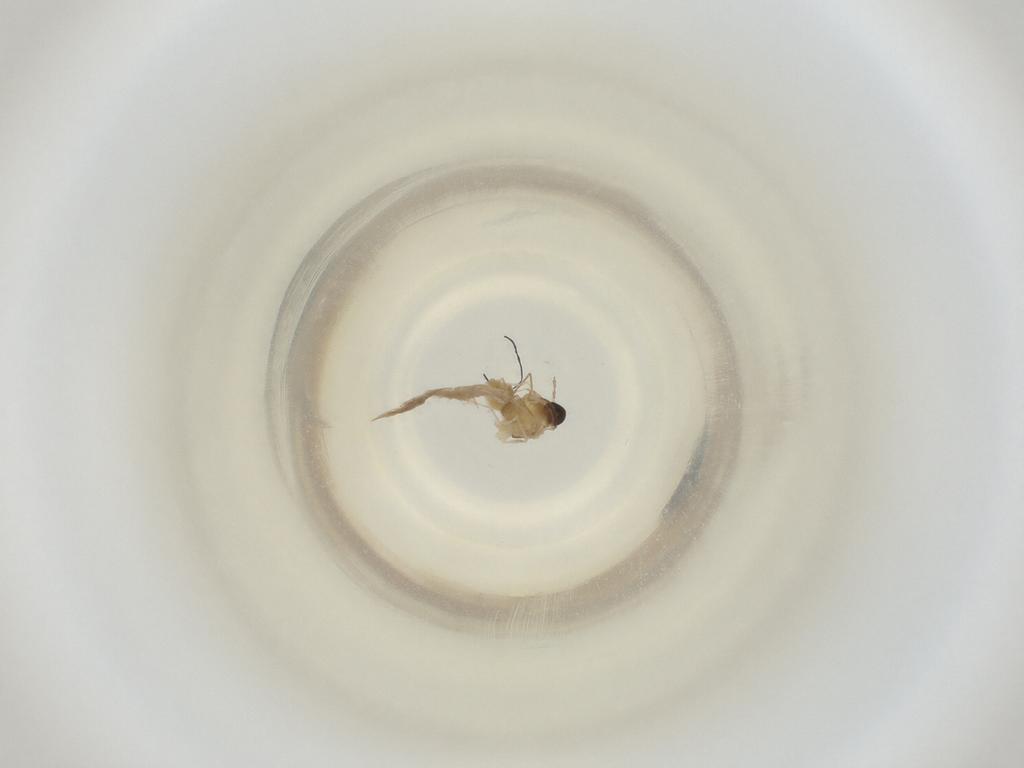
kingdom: Animalia
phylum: Arthropoda
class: Insecta
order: Diptera
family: Cecidomyiidae
